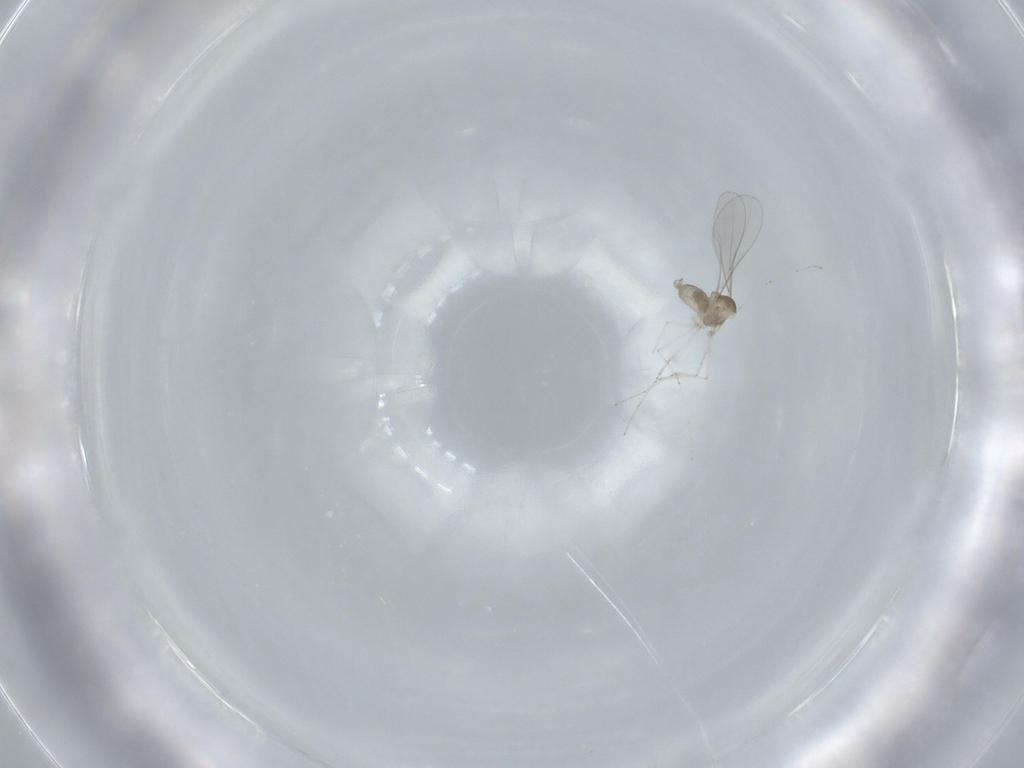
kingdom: Animalia
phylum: Arthropoda
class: Insecta
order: Diptera
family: Cecidomyiidae
